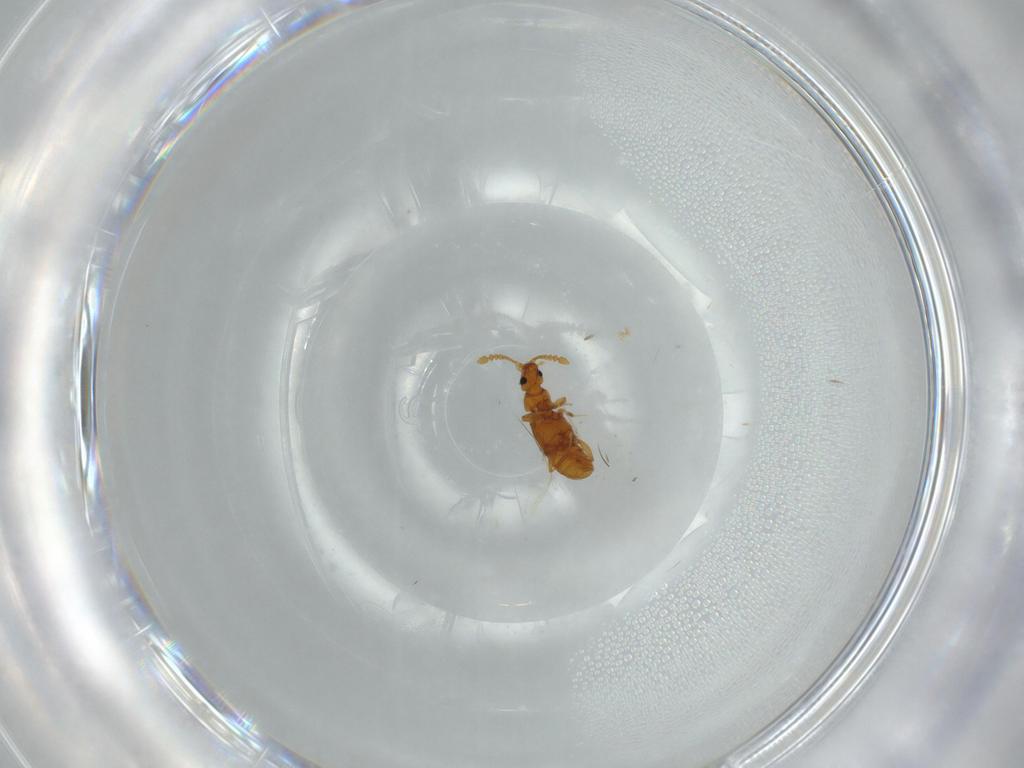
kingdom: Animalia
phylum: Arthropoda
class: Insecta
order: Coleoptera
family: Staphylinidae
